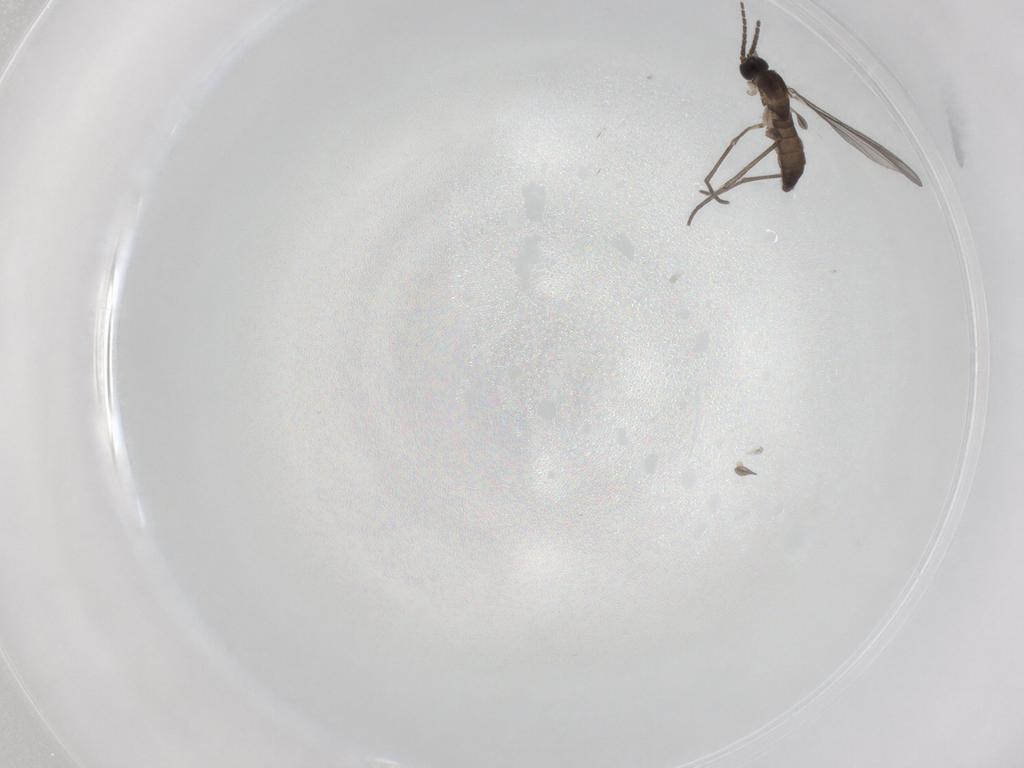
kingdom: Animalia
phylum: Arthropoda
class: Insecta
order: Diptera
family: Sciaridae
